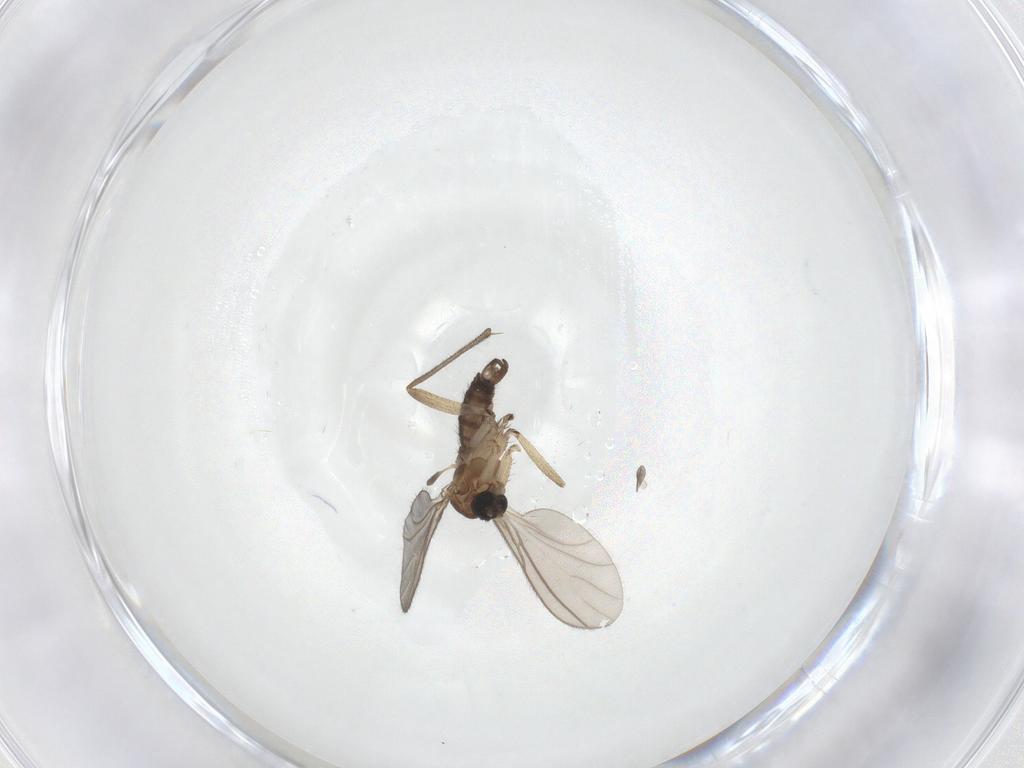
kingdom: Animalia
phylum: Arthropoda
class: Insecta
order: Diptera
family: Sciaridae
